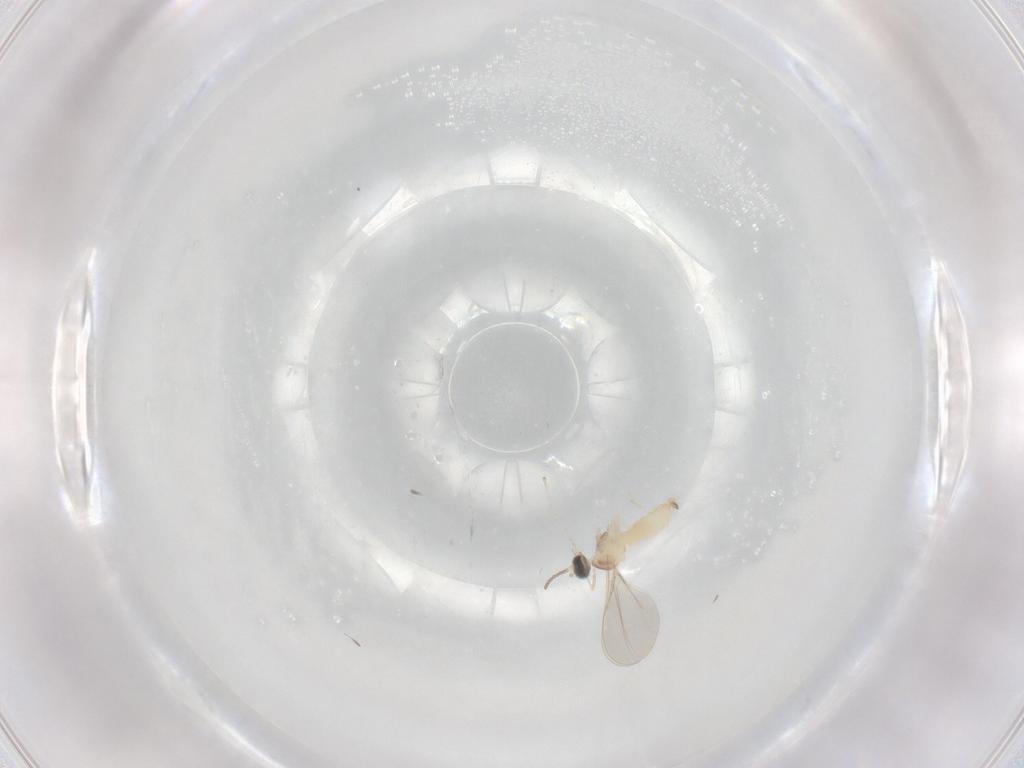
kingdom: Animalia
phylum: Arthropoda
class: Insecta
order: Diptera
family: Cecidomyiidae
